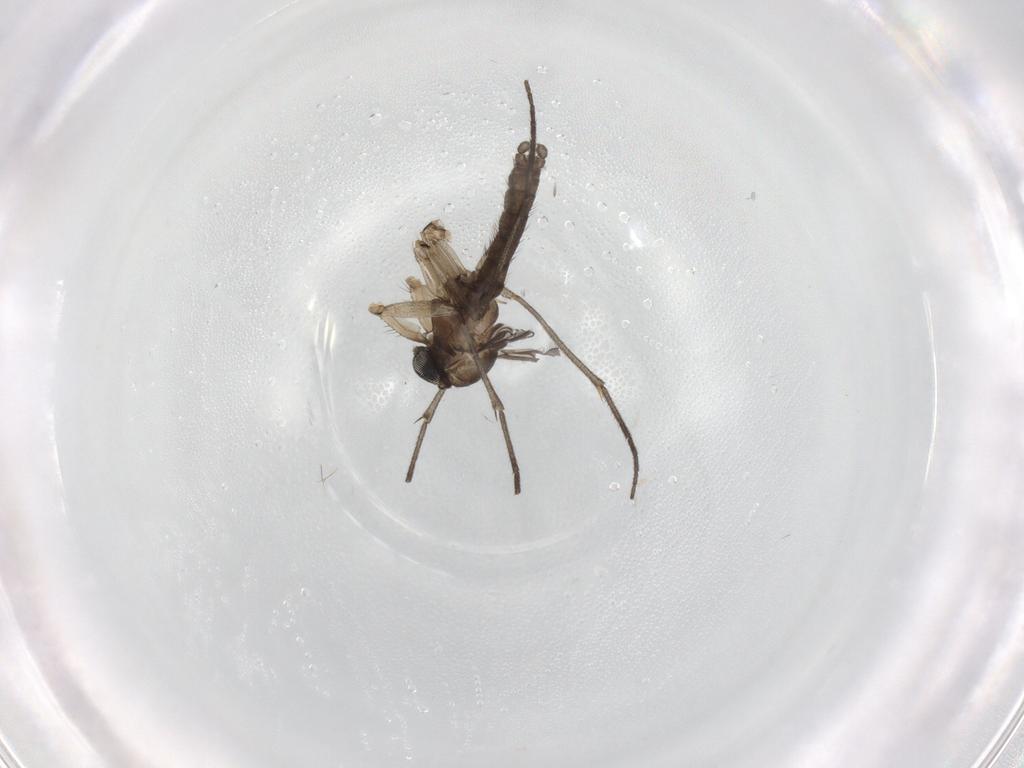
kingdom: Animalia
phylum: Arthropoda
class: Insecta
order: Diptera
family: Sciaridae
